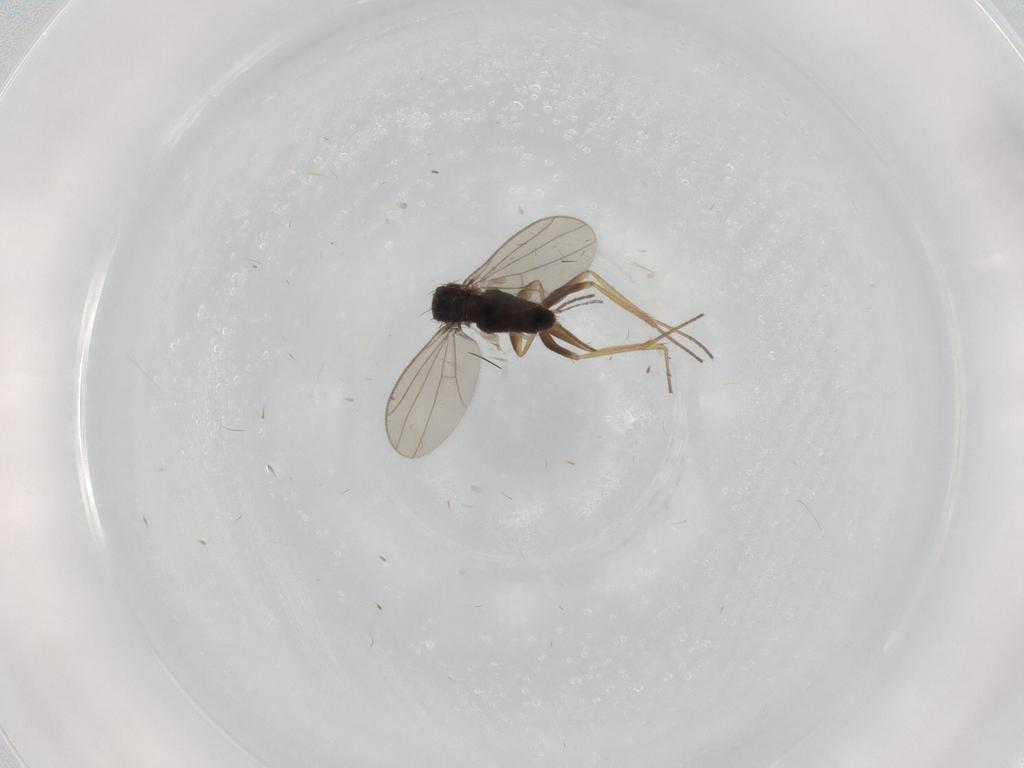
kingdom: Animalia
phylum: Arthropoda
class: Insecta
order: Diptera
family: Dolichopodidae
